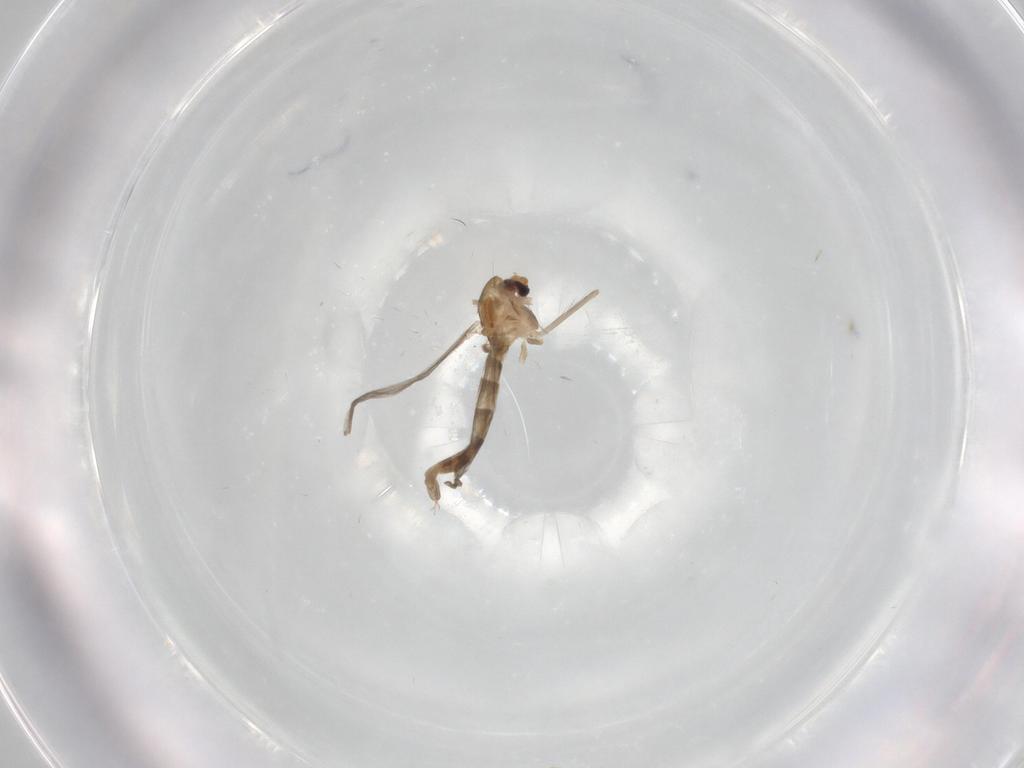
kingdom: Animalia
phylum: Arthropoda
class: Insecta
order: Diptera
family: Chironomidae
